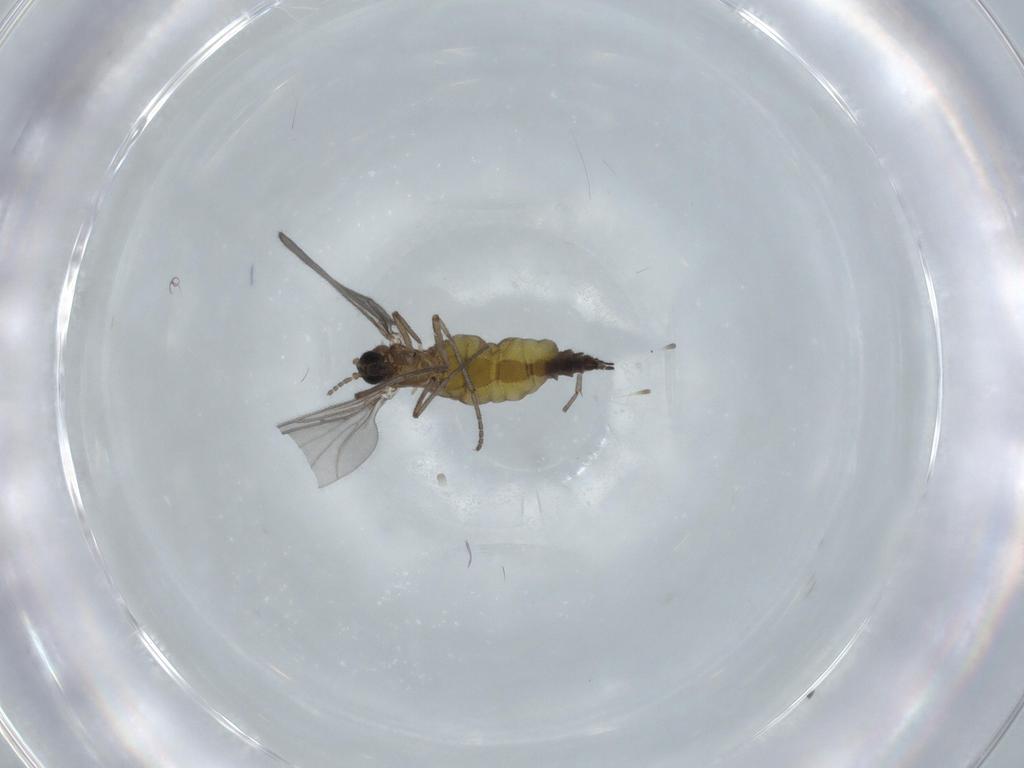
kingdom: Animalia
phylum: Arthropoda
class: Insecta
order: Diptera
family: Sciaridae
